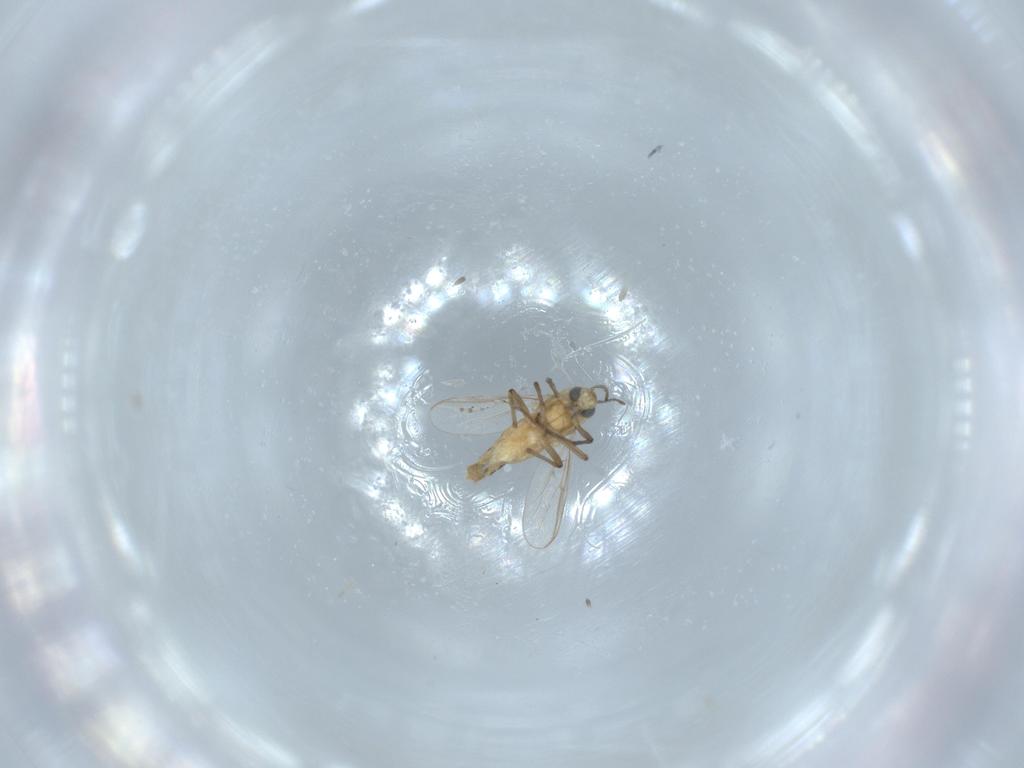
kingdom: Animalia
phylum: Arthropoda
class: Insecta
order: Diptera
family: Chironomidae
